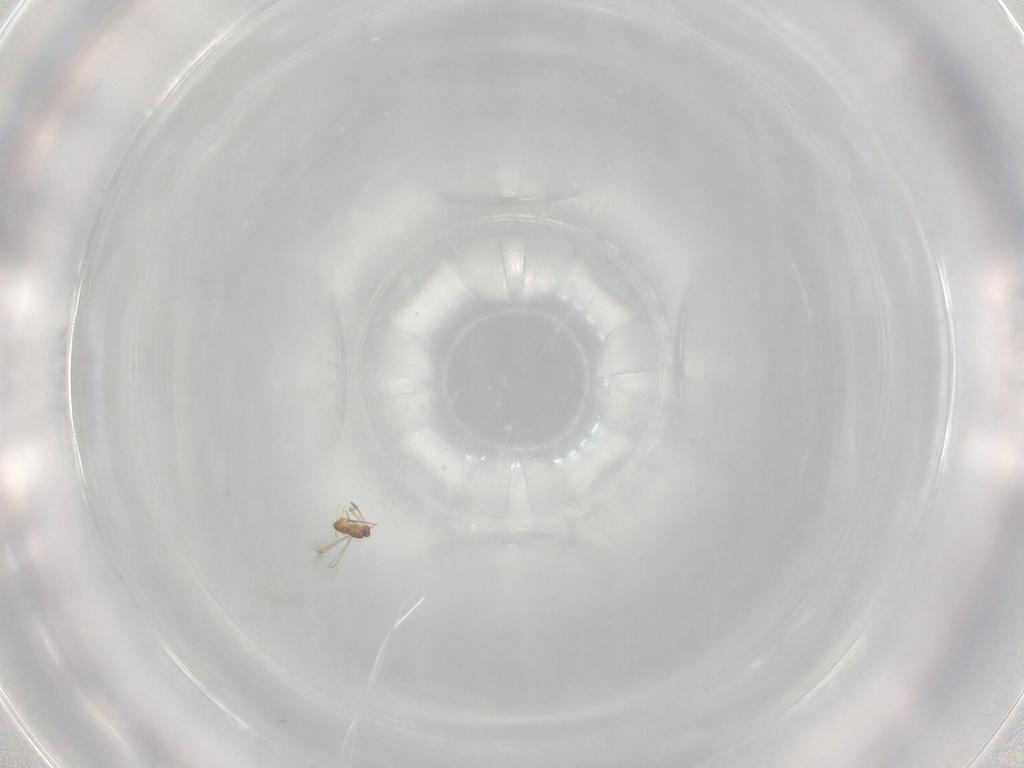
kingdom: Animalia
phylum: Arthropoda
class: Insecta
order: Hymenoptera
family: Mymaridae
